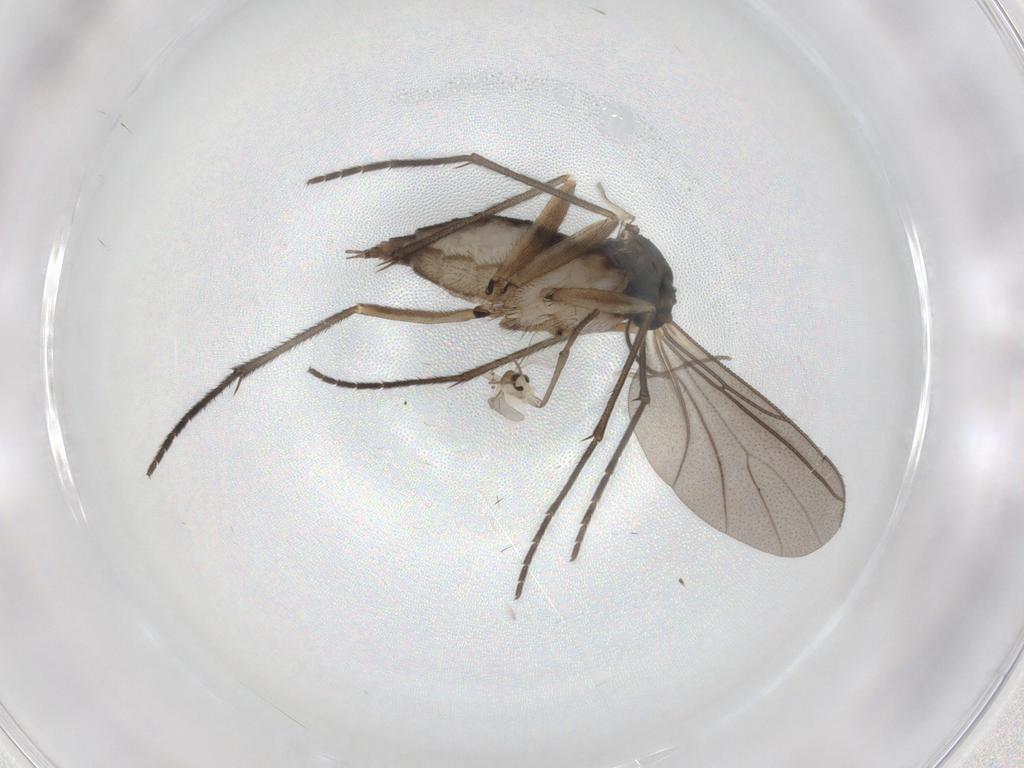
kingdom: Animalia
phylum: Arthropoda
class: Insecta
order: Diptera
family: Sciaridae
